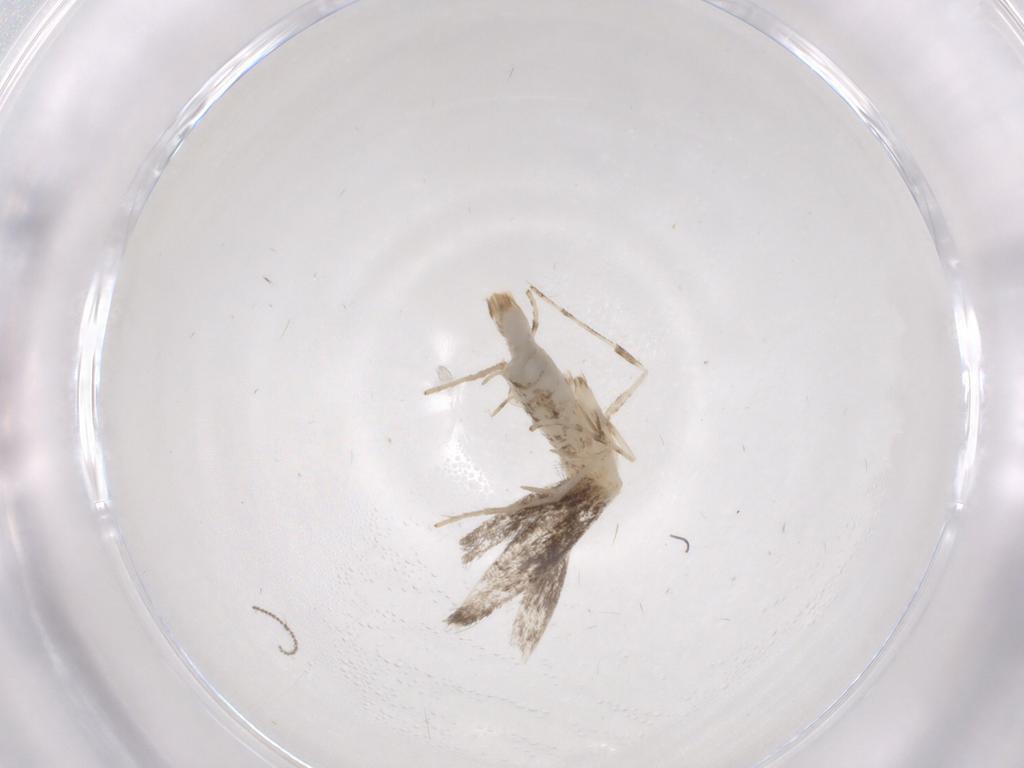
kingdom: Animalia
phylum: Arthropoda
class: Insecta
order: Lepidoptera
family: Gracillariidae
